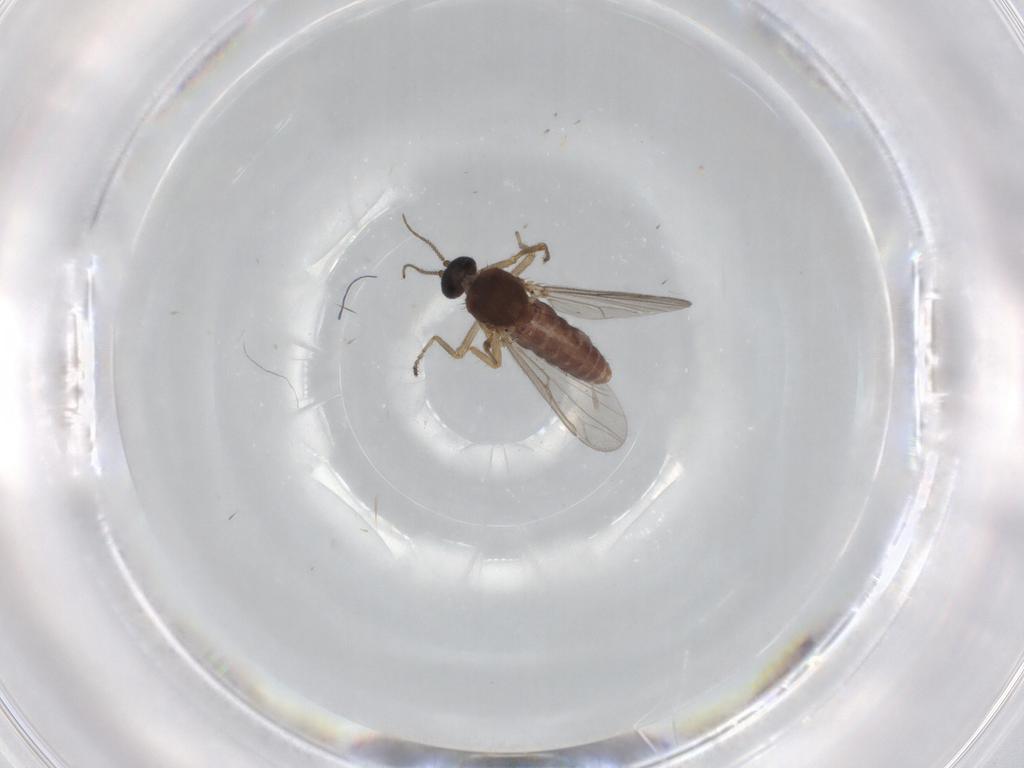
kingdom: Animalia
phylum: Arthropoda
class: Insecta
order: Diptera
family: Ceratopogonidae
